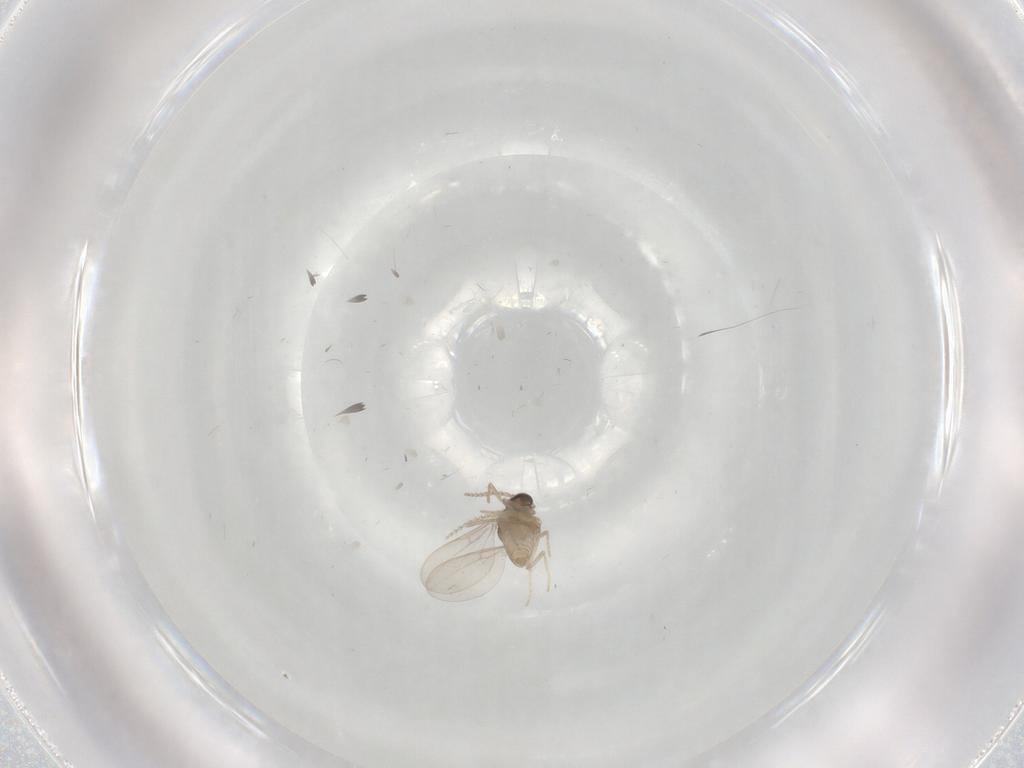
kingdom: Animalia
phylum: Arthropoda
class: Insecta
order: Diptera
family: Cecidomyiidae
